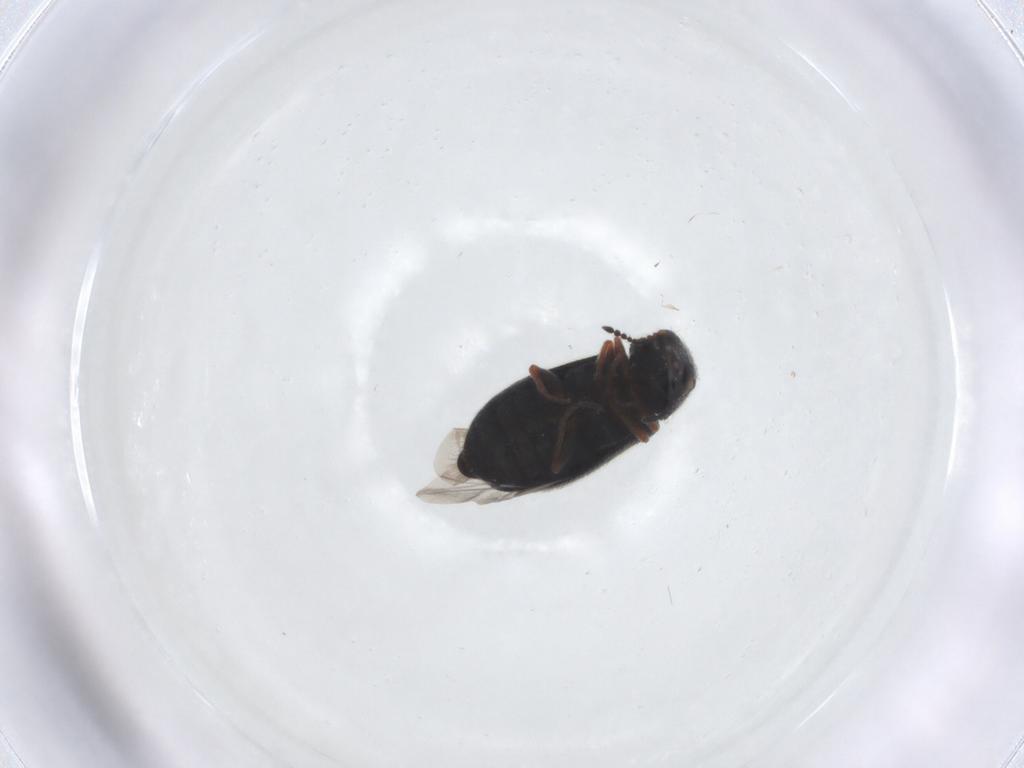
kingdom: Animalia
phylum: Arthropoda
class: Insecta
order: Coleoptera
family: Melyridae
